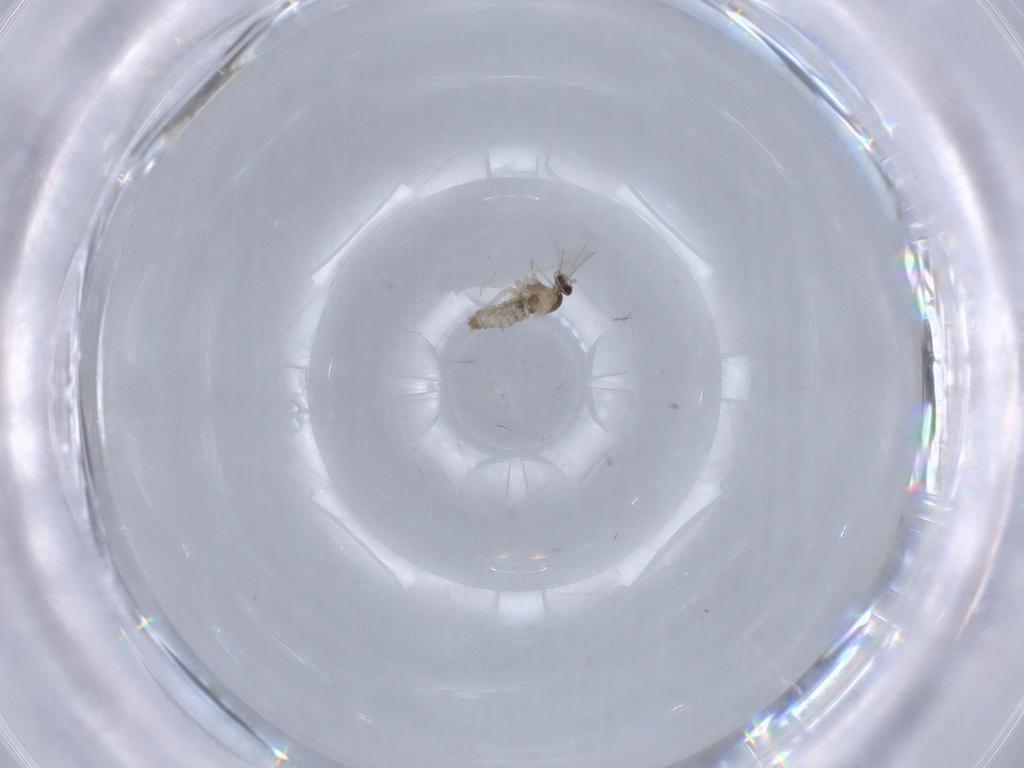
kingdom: Animalia
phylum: Arthropoda
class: Insecta
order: Diptera
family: Cecidomyiidae
